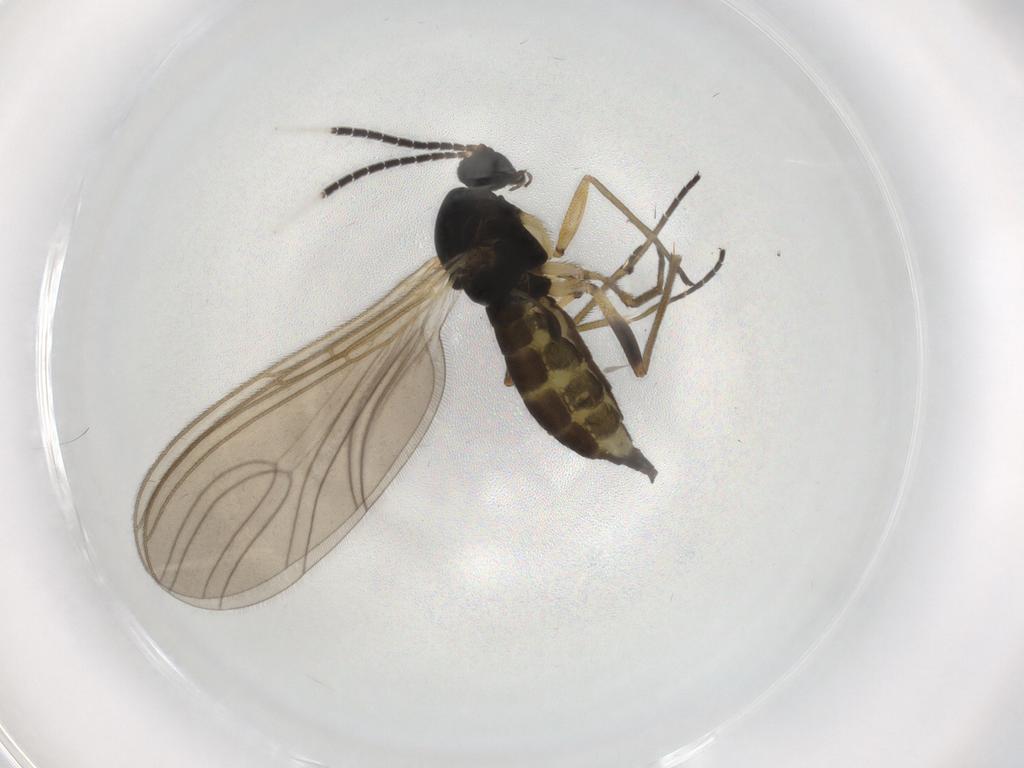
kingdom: Animalia
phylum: Arthropoda
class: Insecta
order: Diptera
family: Sciaridae
